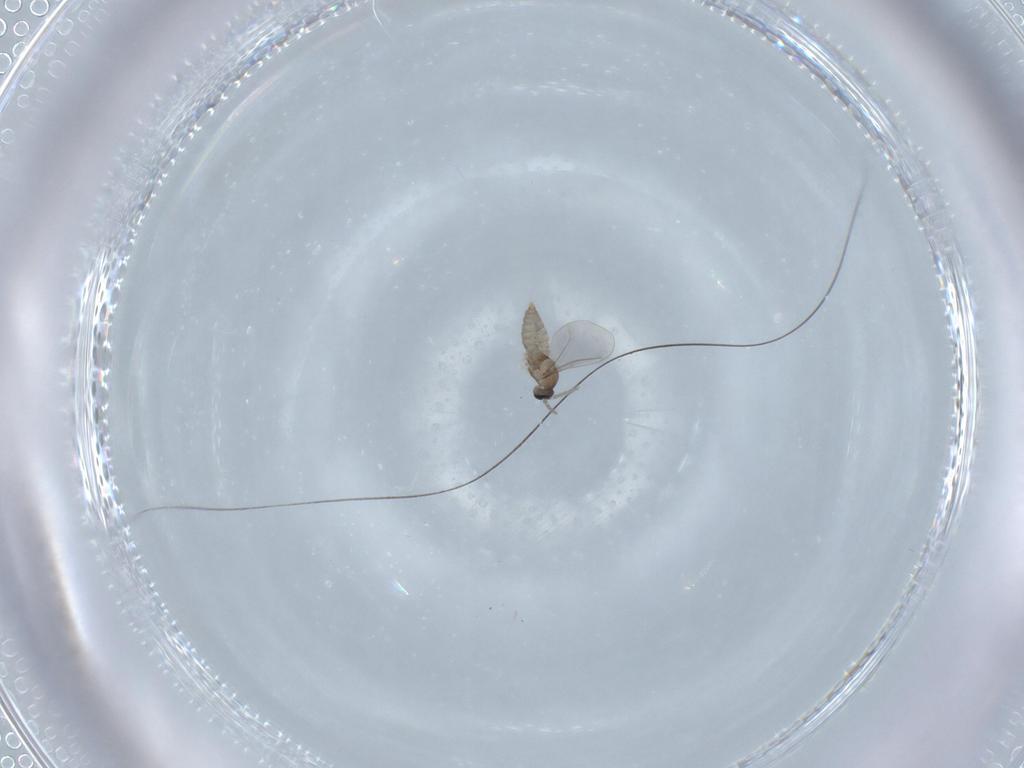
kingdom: Animalia
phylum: Arthropoda
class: Insecta
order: Diptera
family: Cecidomyiidae
